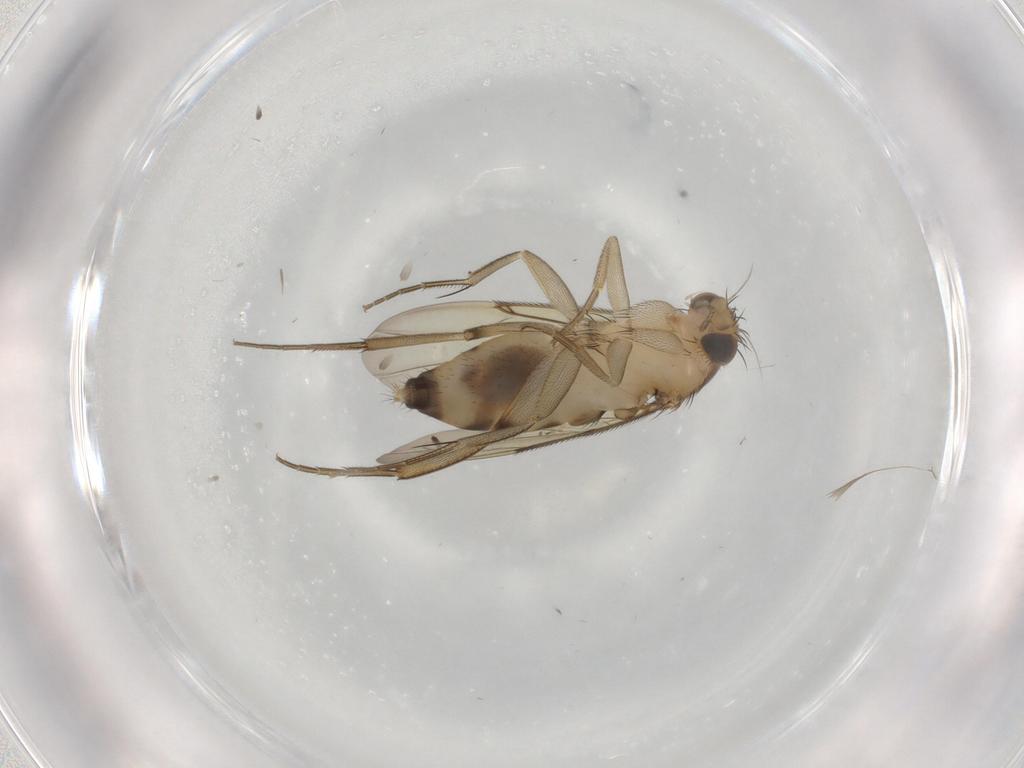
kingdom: Animalia
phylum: Arthropoda
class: Insecta
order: Diptera
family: Phoridae
